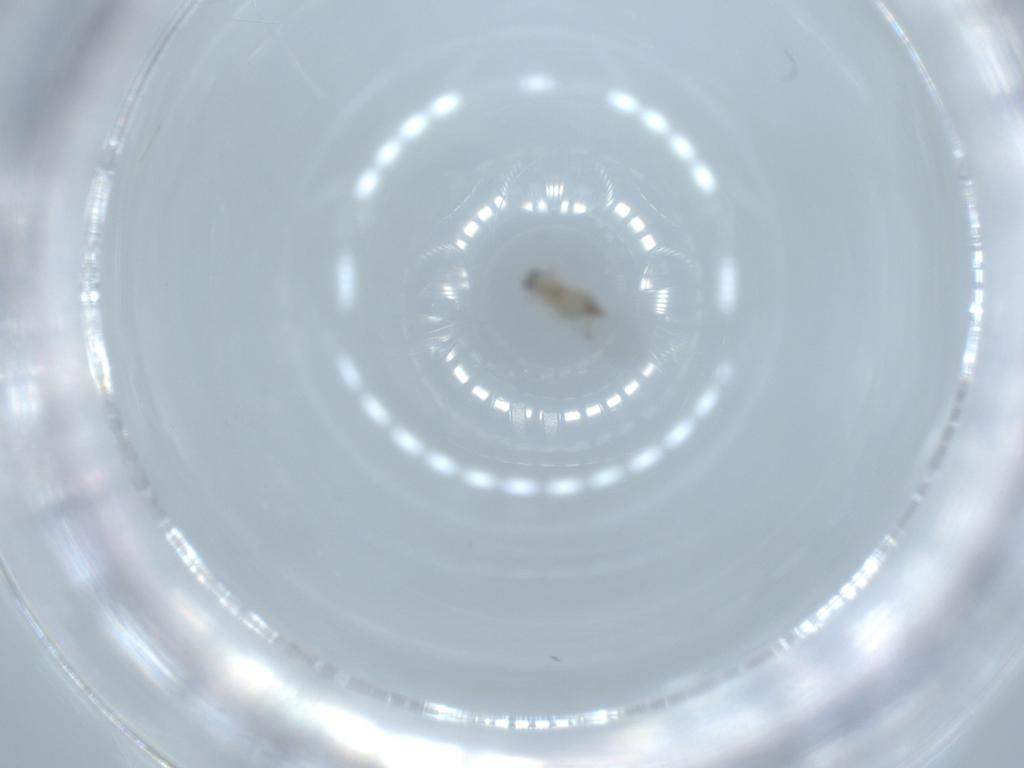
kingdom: Animalia
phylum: Arthropoda
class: Insecta
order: Diptera
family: Cecidomyiidae
